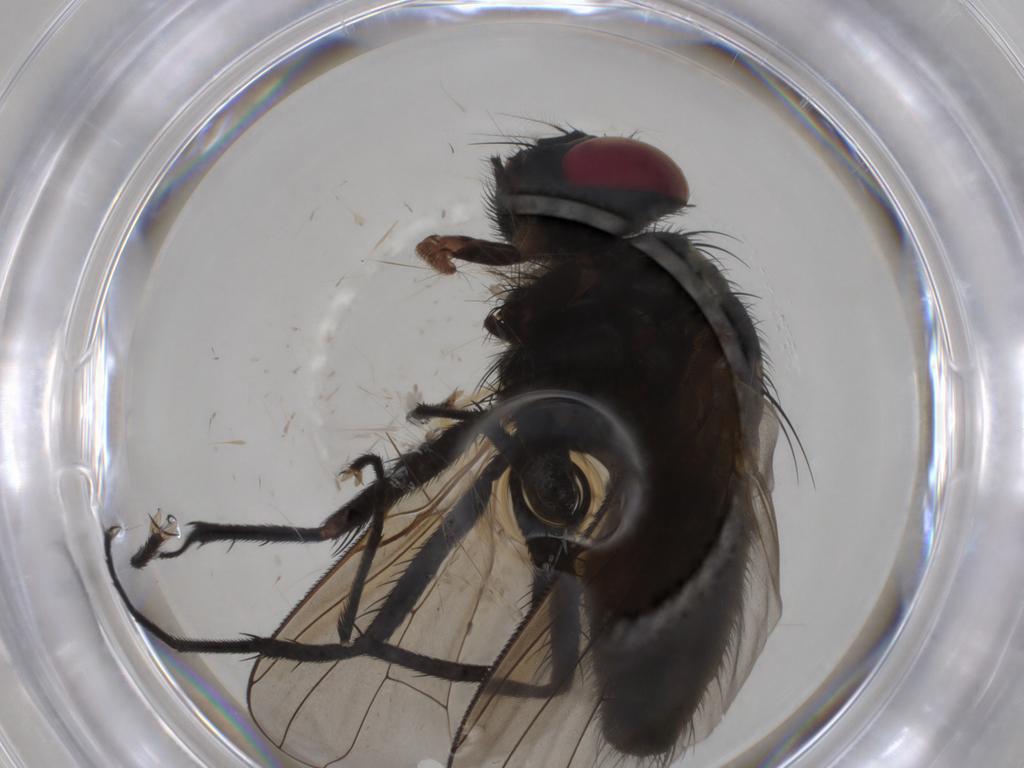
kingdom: Animalia
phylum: Arthropoda
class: Insecta
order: Diptera
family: Muscidae
